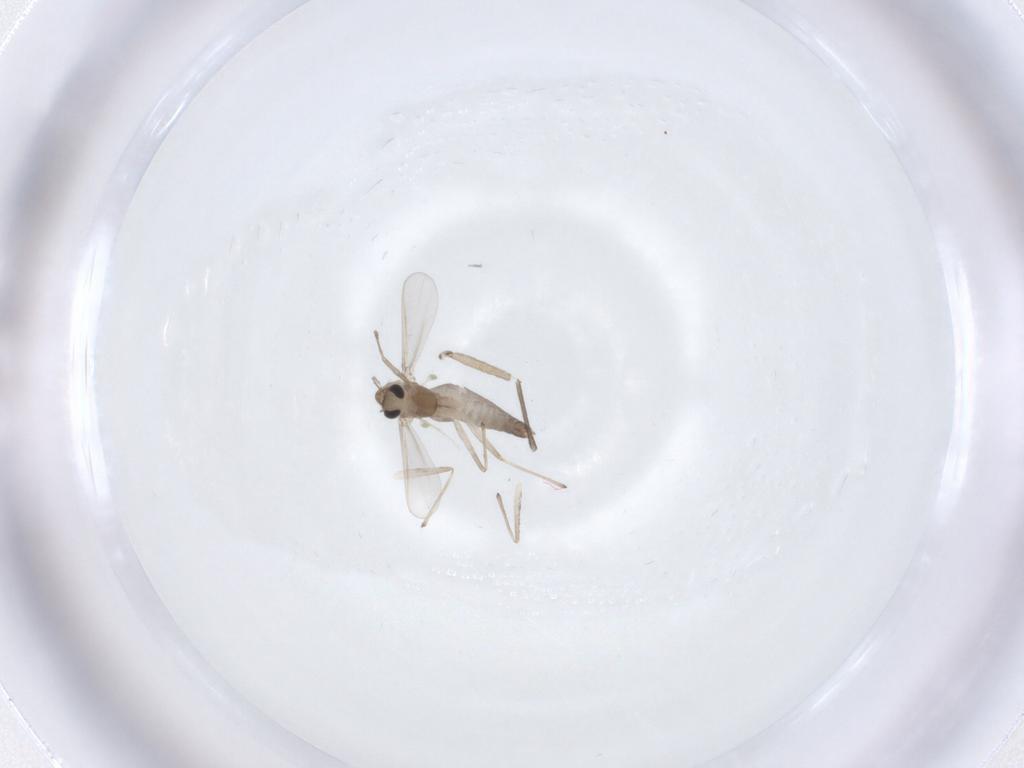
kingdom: Animalia
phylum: Arthropoda
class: Insecta
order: Diptera
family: Chironomidae
